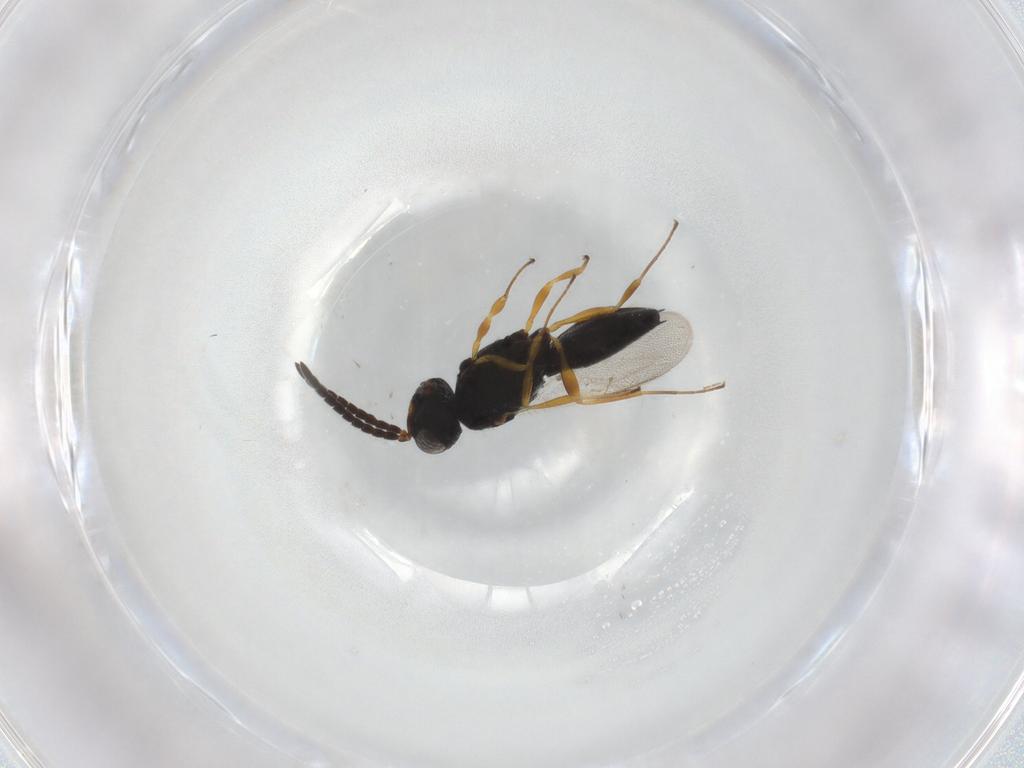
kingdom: Animalia
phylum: Arthropoda
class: Insecta
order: Hymenoptera
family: Scelionidae
